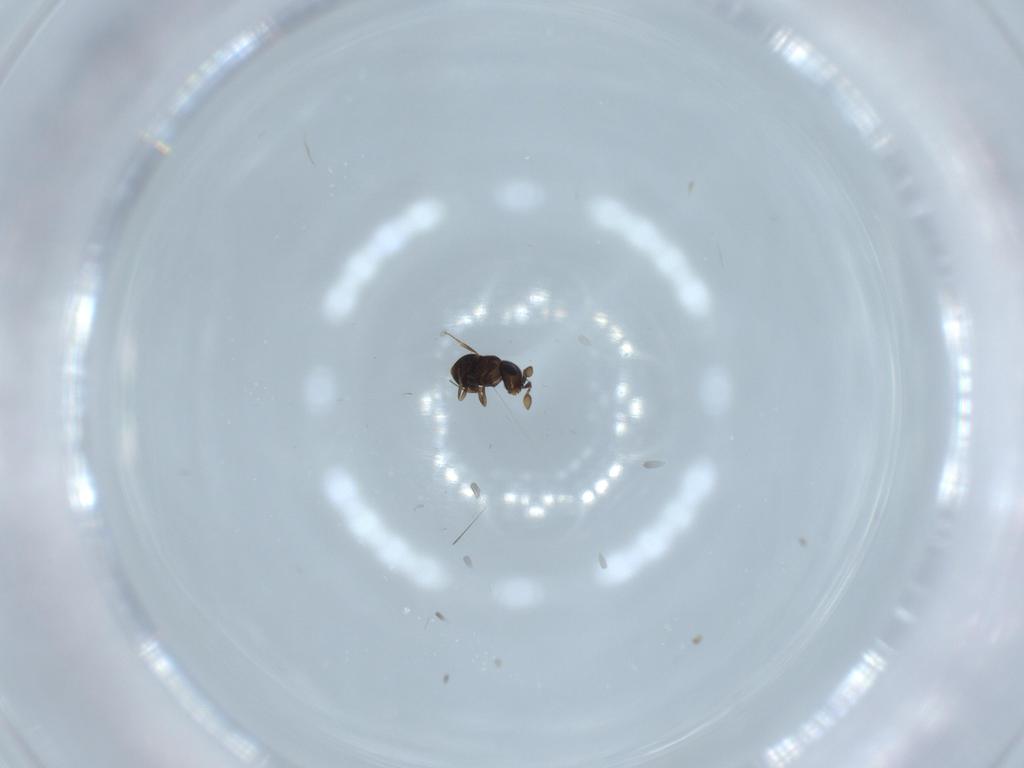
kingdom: Animalia
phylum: Arthropoda
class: Insecta
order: Hymenoptera
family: Scelionidae
